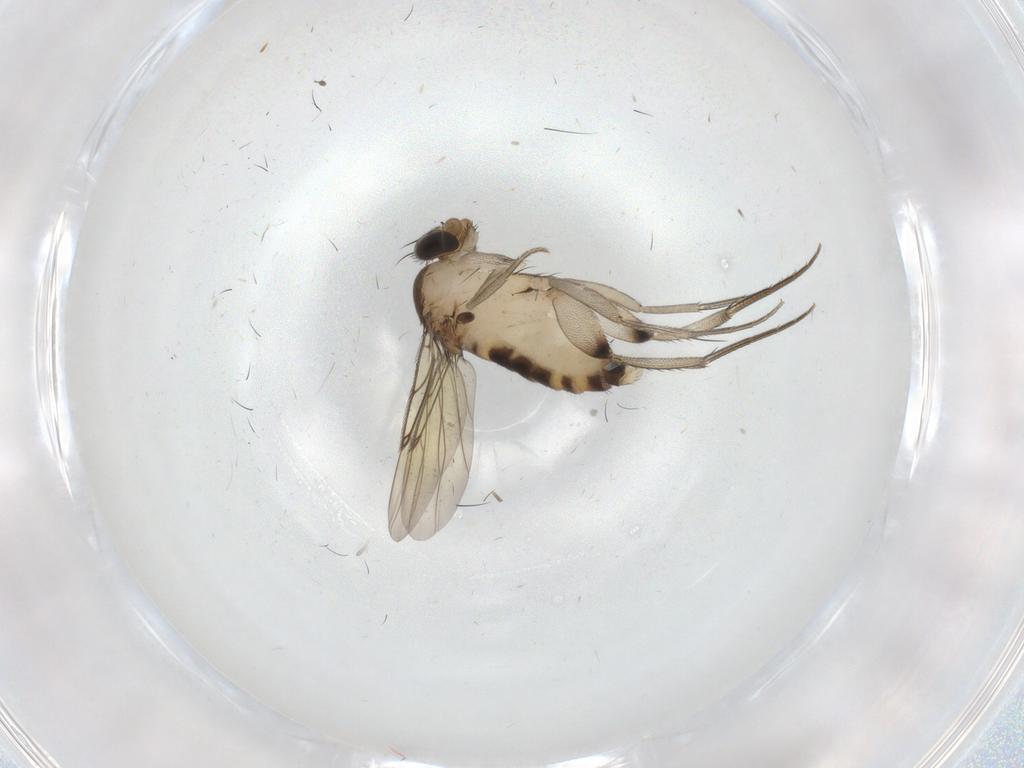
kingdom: Animalia
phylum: Arthropoda
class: Insecta
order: Diptera
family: Phoridae
